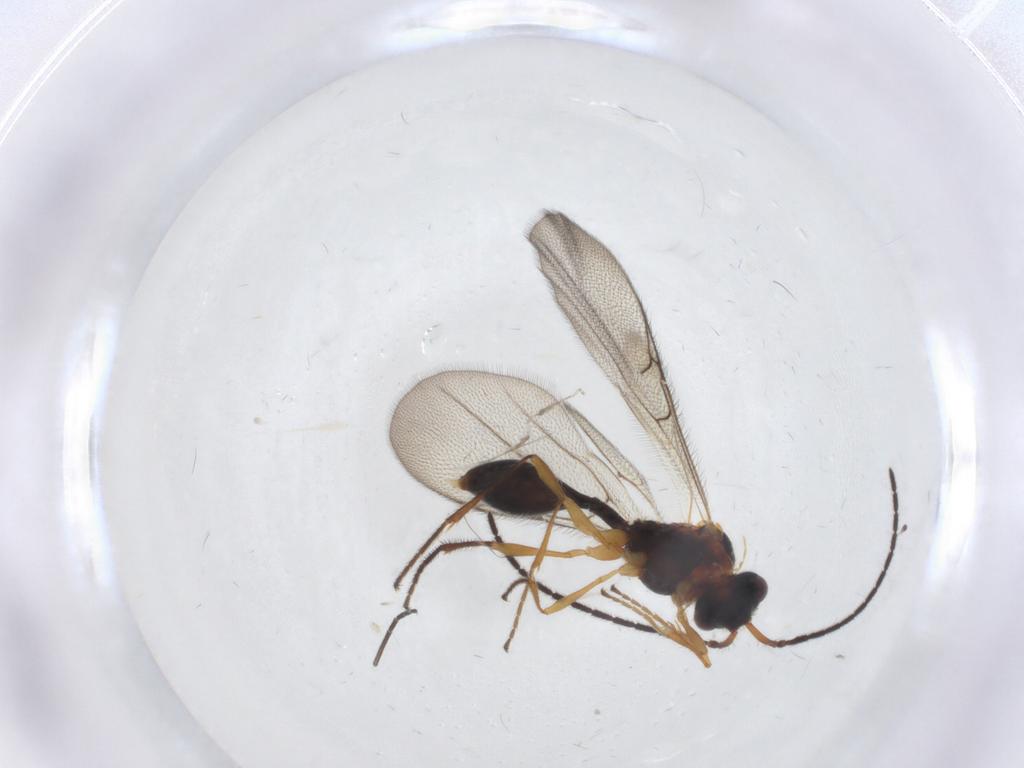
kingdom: Animalia
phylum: Arthropoda
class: Insecta
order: Hymenoptera
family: Diapriidae
